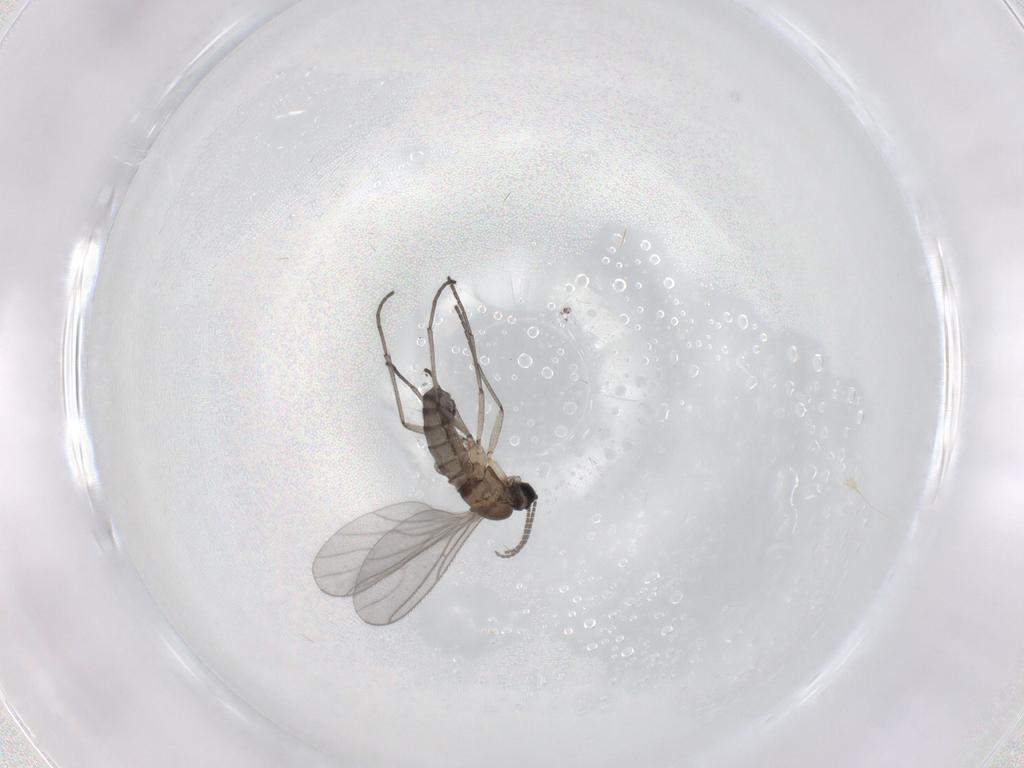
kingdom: Animalia
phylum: Arthropoda
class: Insecta
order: Diptera
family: Sciaridae
